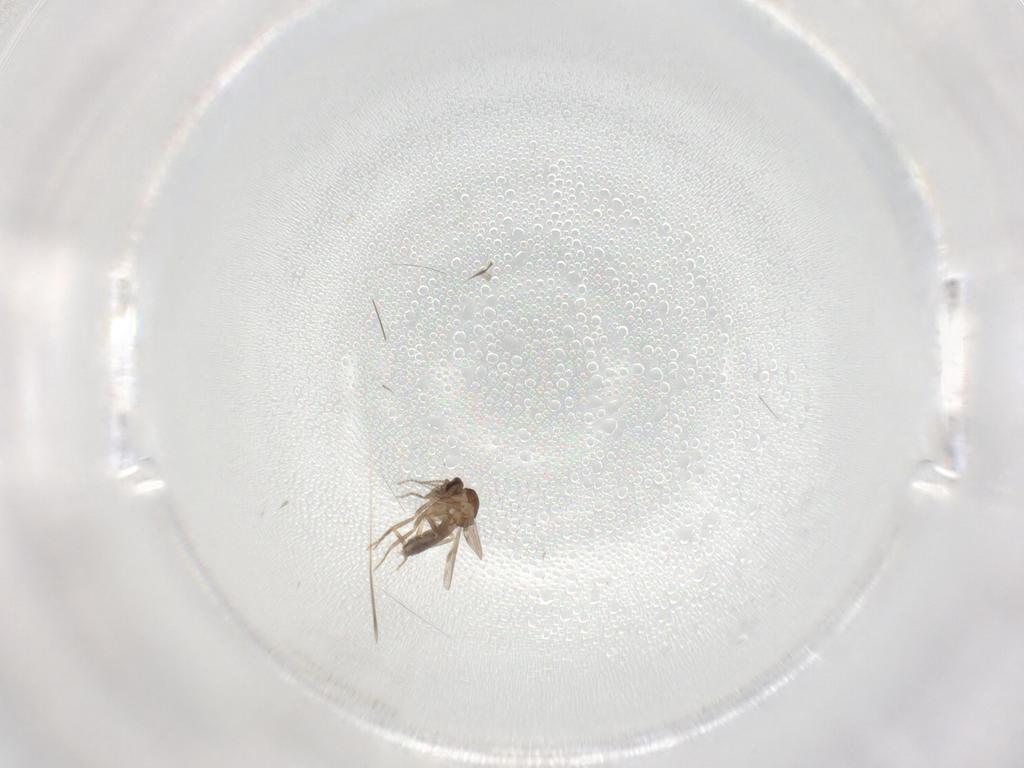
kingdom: Animalia
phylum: Arthropoda
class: Insecta
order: Diptera
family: Ceratopogonidae
